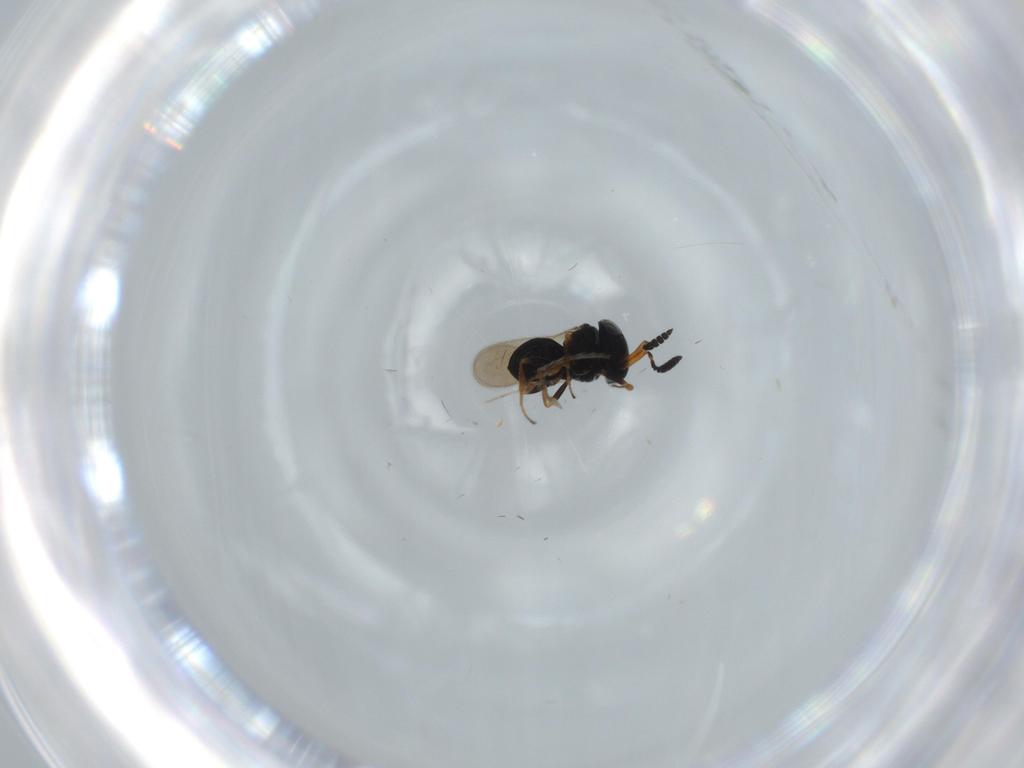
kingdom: Animalia
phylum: Arthropoda
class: Insecta
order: Hymenoptera
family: Scelionidae
